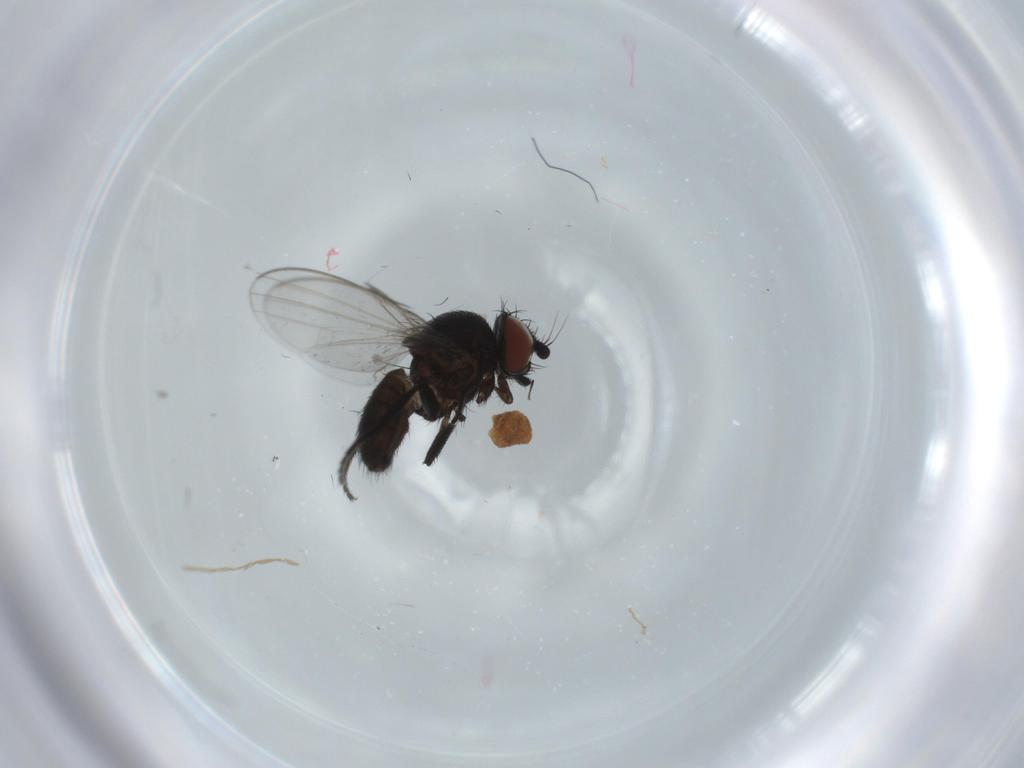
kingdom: Animalia
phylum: Arthropoda
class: Insecta
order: Diptera
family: Milichiidae
